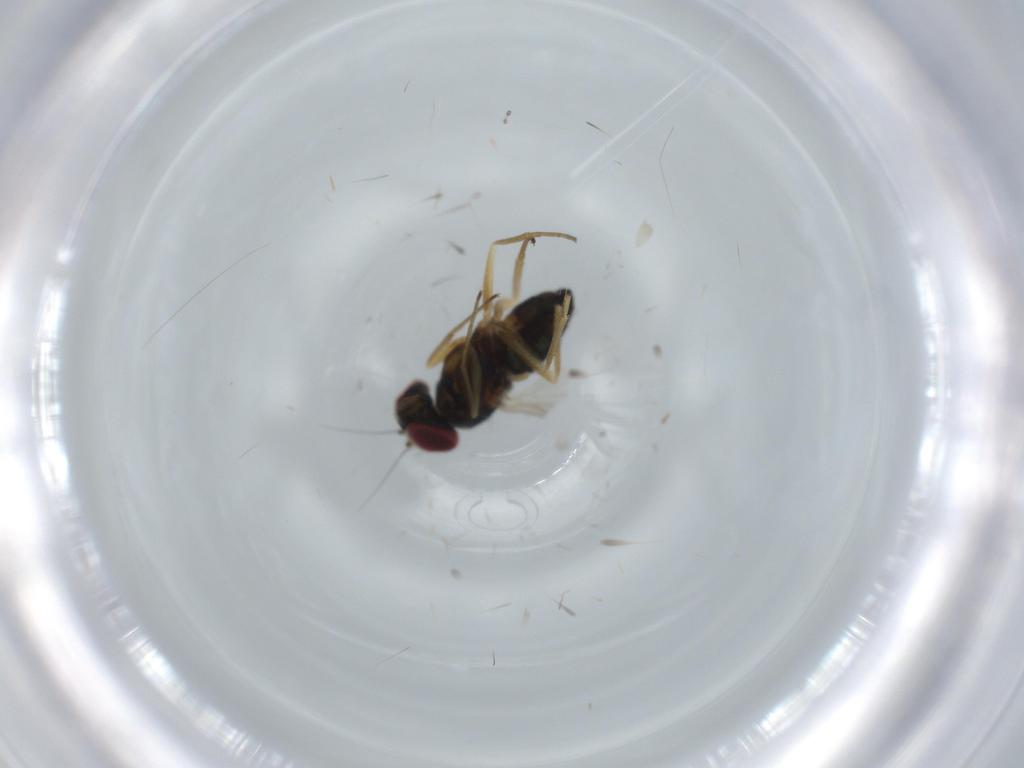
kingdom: Animalia
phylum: Arthropoda
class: Insecta
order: Diptera
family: Dolichopodidae
